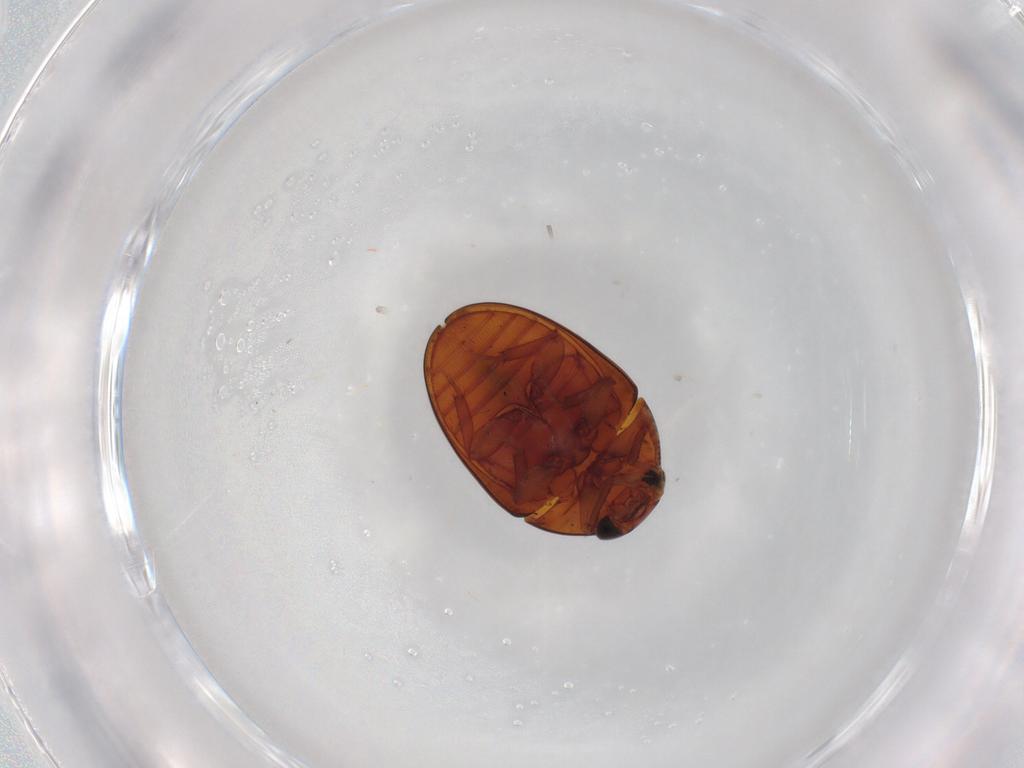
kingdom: Animalia
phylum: Arthropoda
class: Insecta
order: Coleoptera
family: Phalacridae
